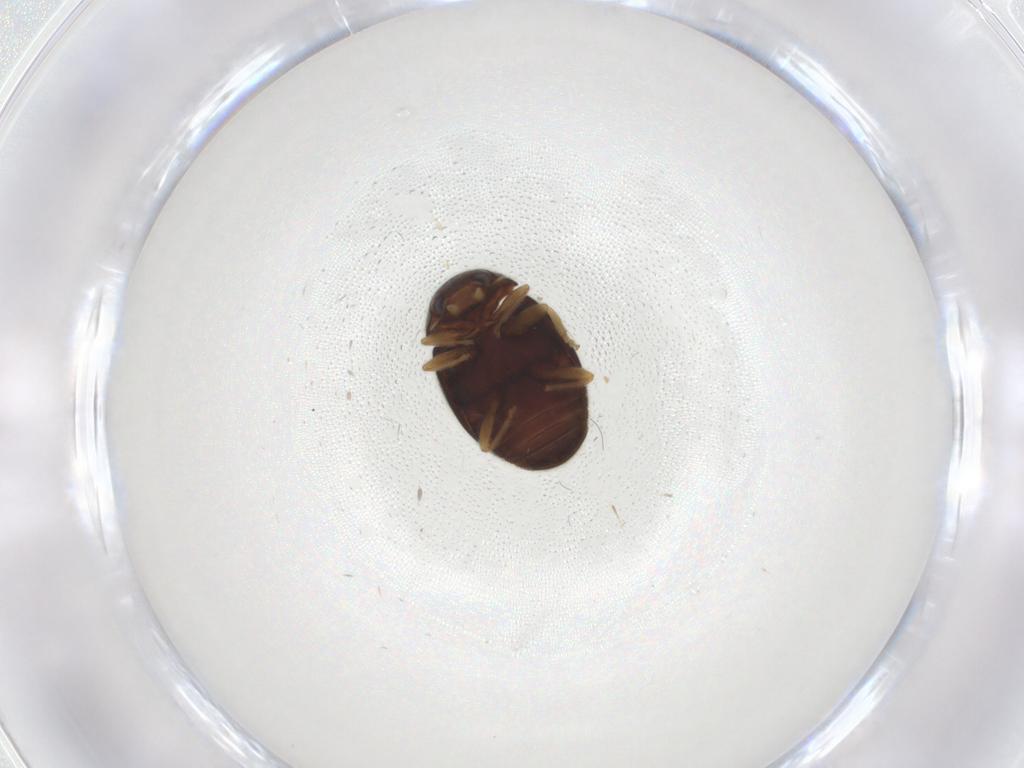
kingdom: Animalia
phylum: Arthropoda
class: Insecta
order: Coleoptera
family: Coccinellidae
